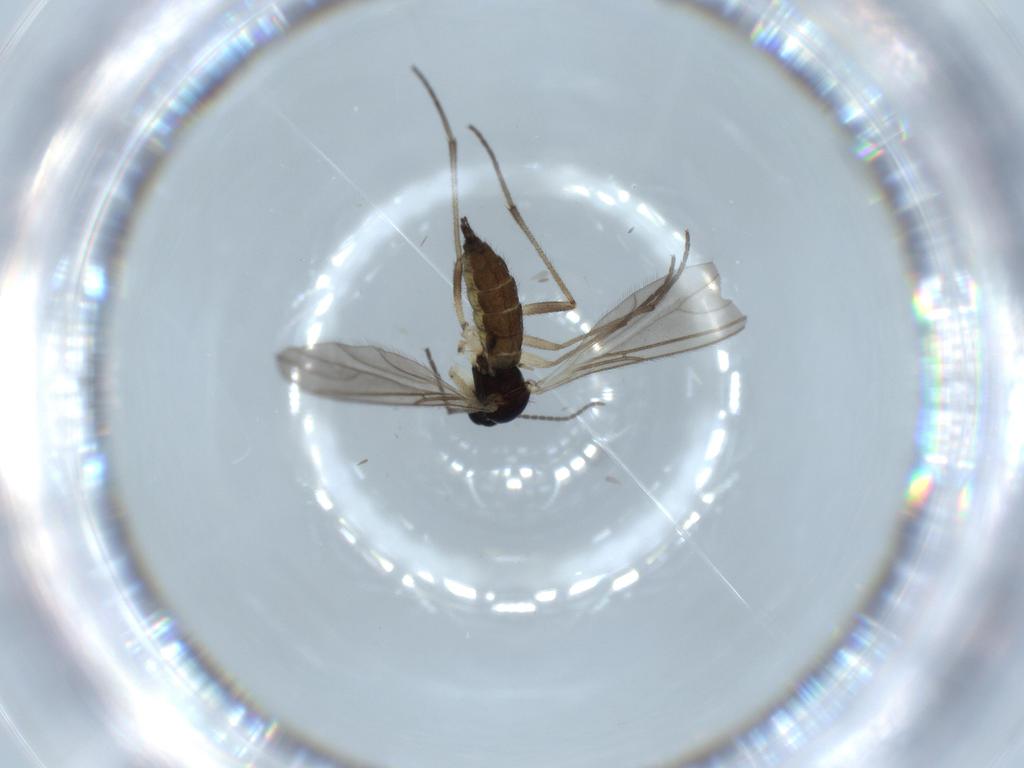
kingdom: Animalia
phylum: Arthropoda
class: Insecta
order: Diptera
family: Sciaridae
